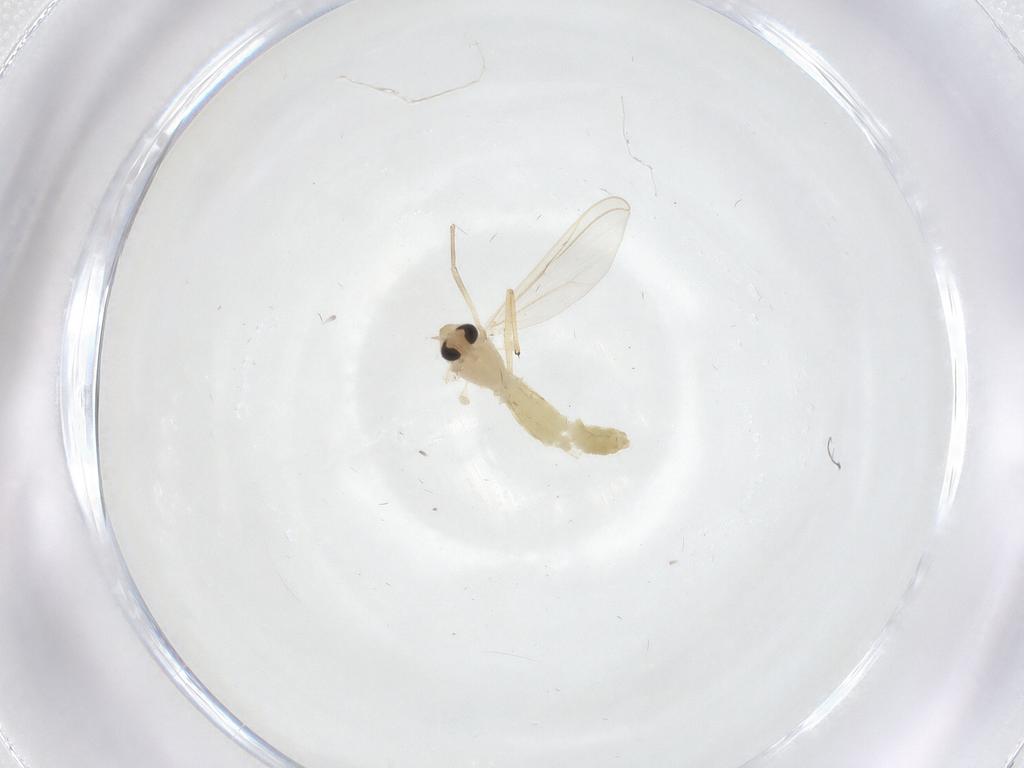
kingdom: Animalia
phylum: Arthropoda
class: Insecta
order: Diptera
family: Chironomidae
